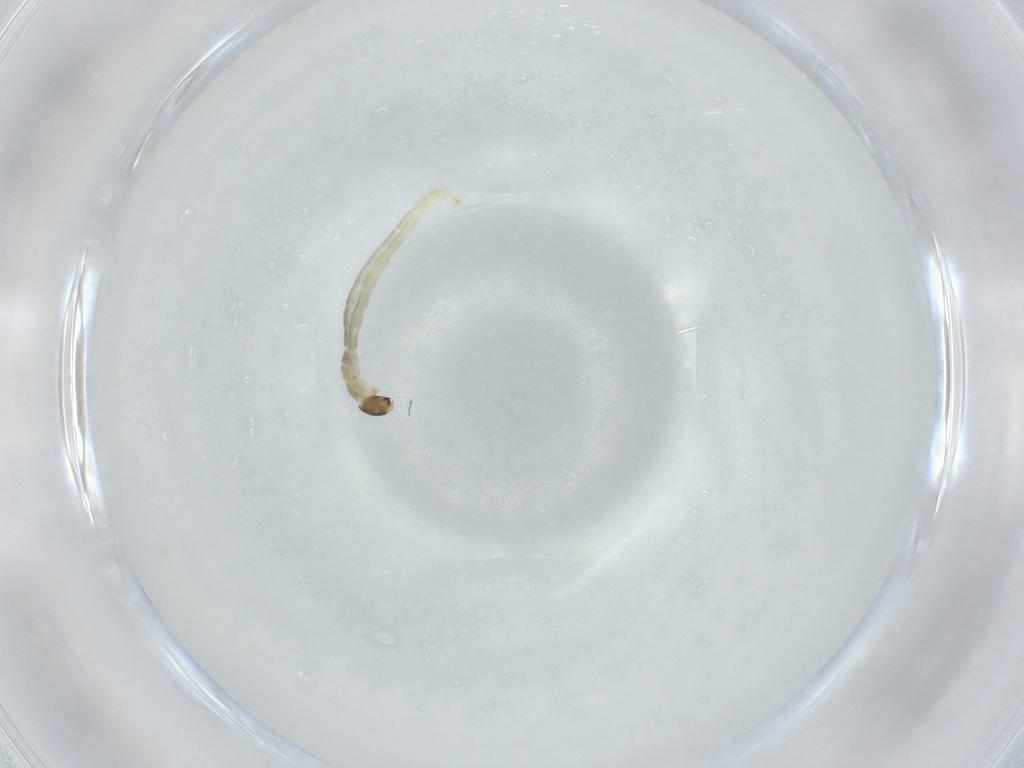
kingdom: Animalia
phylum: Arthropoda
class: Insecta
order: Diptera
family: Chironomidae
